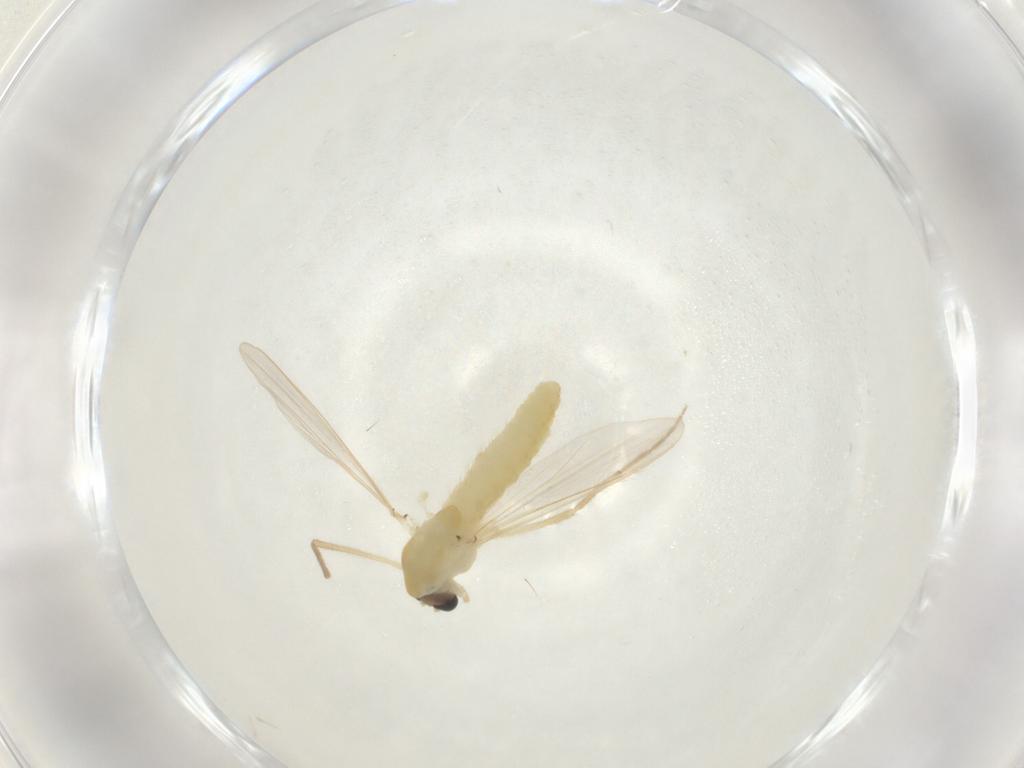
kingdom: Animalia
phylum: Arthropoda
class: Insecta
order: Diptera
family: Chironomidae
